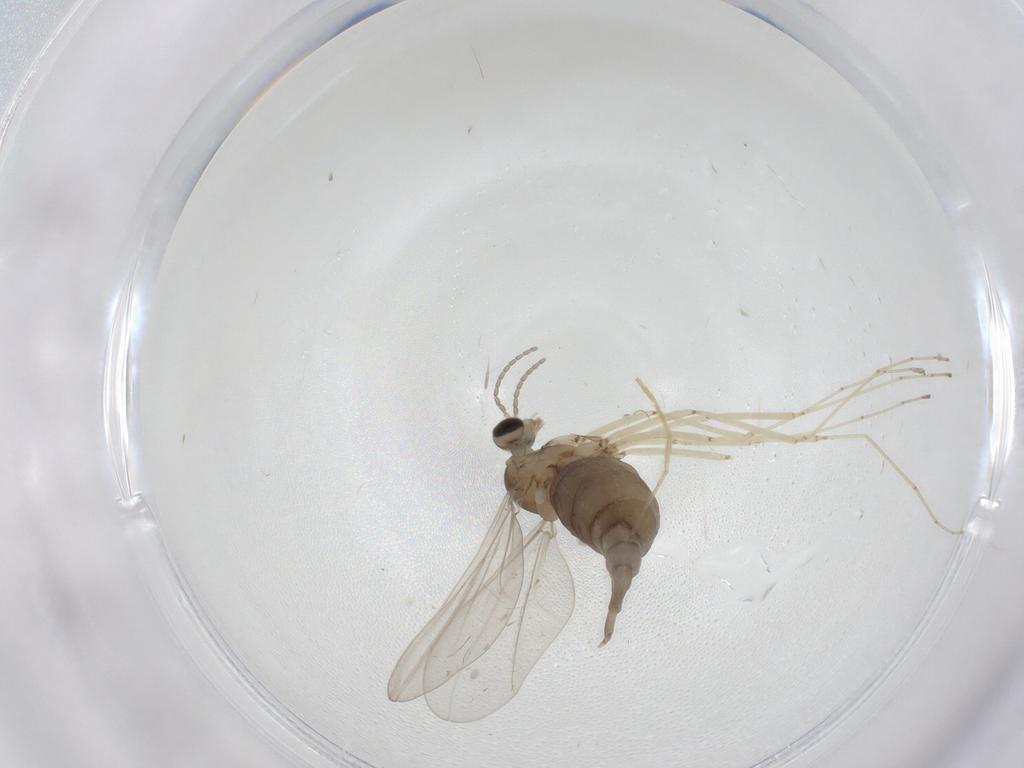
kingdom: Animalia
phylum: Arthropoda
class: Insecta
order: Diptera
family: Cecidomyiidae
